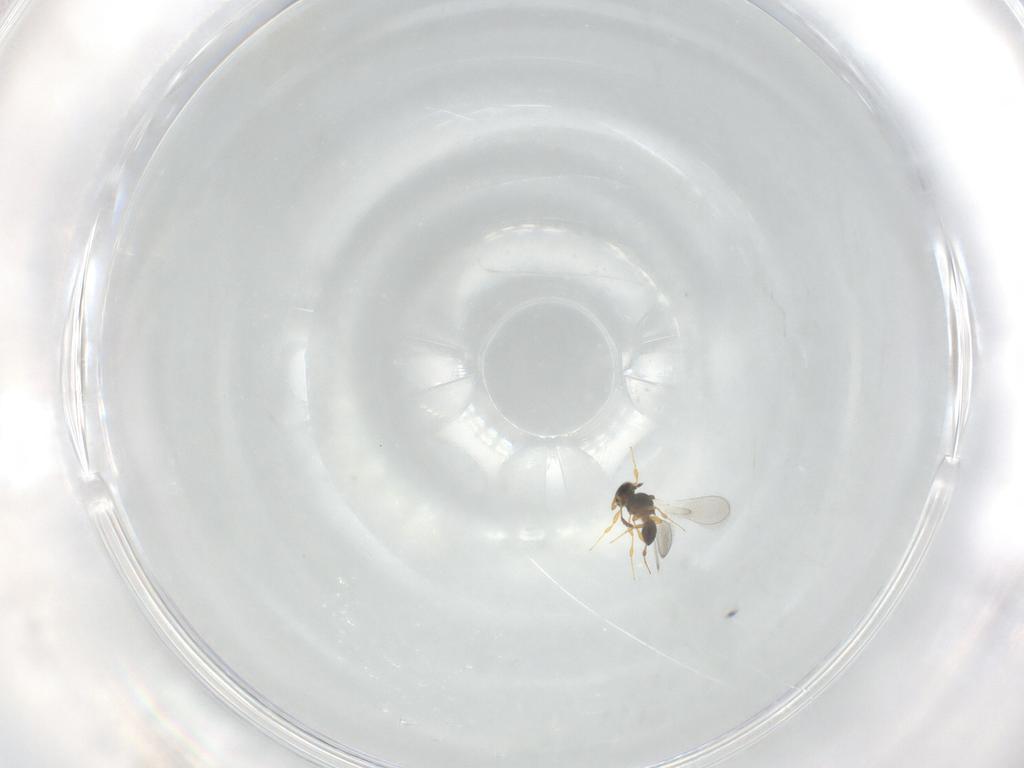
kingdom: Animalia
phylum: Arthropoda
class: Insecta
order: Hymenoptera
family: Platygastridae
